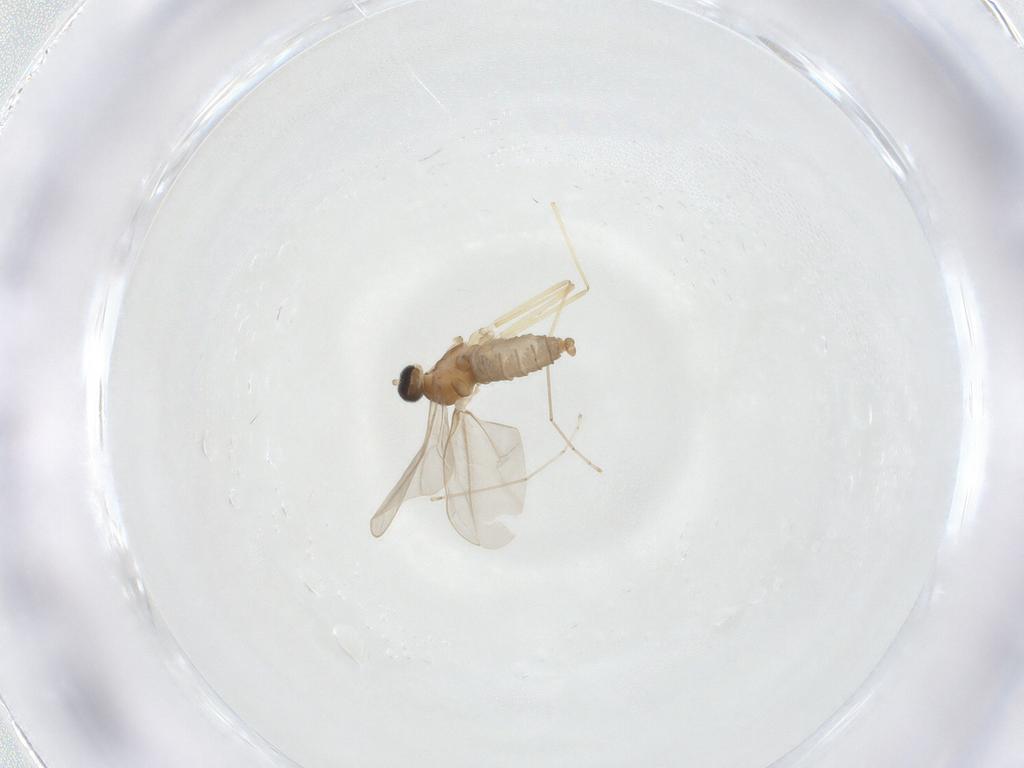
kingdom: Animalia
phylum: Arthropoda
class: Insecta
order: Diptera
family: Cecidomyiidae
